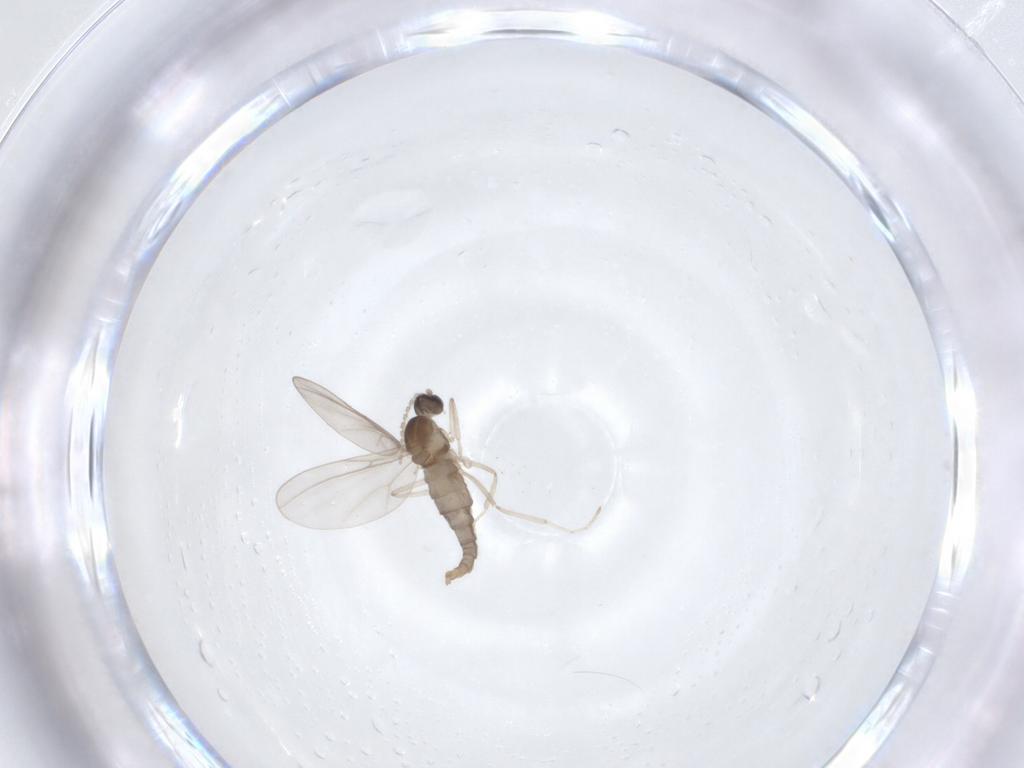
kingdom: Animalia
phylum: Arthropoda
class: Insecta
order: Diptera
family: Cecidomyiidae
